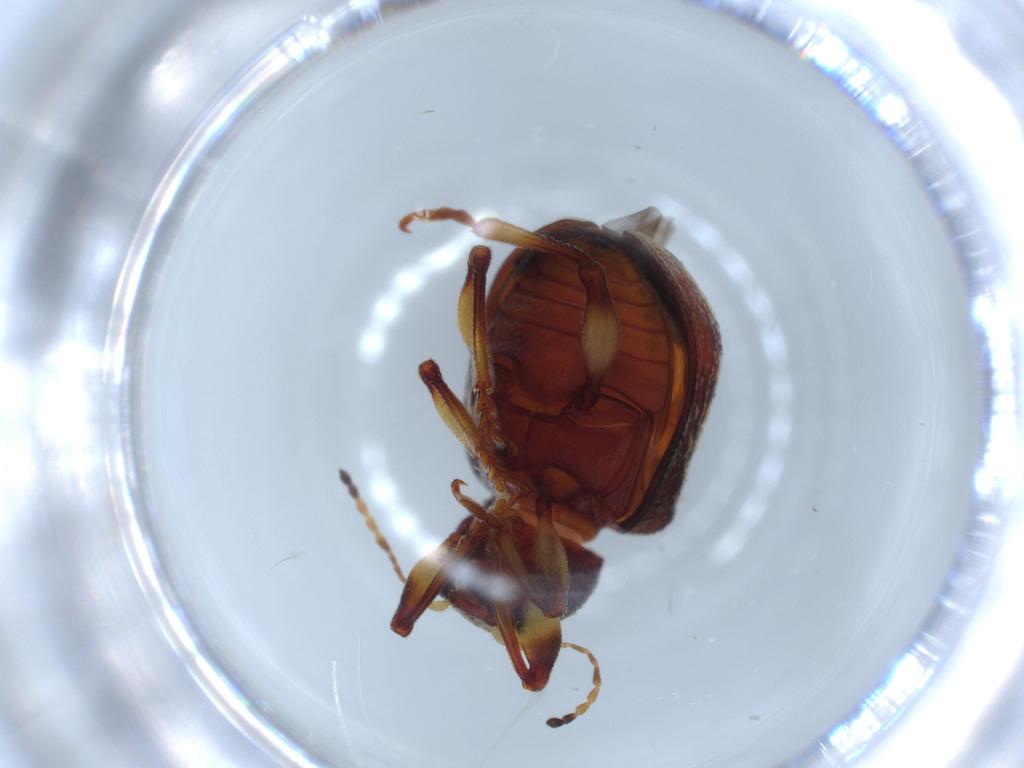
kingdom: Animalia
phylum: Arthropoda
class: Insecta
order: Coleoptera
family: Chrysomelidae
